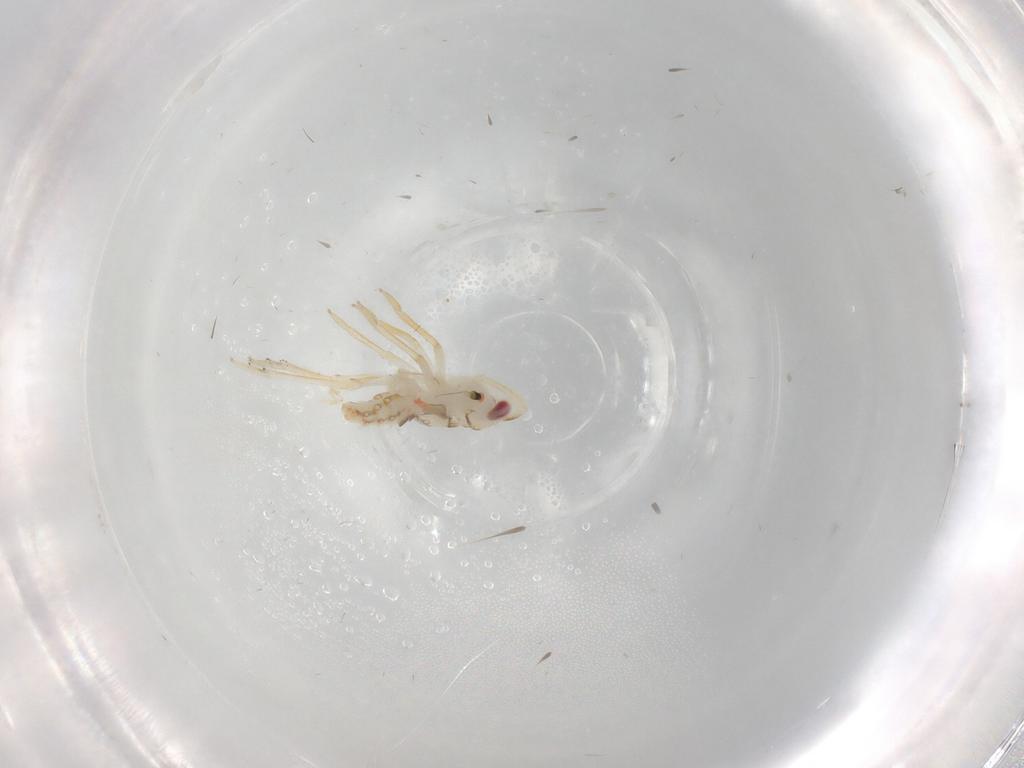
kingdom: Animalia
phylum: Arthropoda
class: Insecta
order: Hemiptera
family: Tropiduchidae
